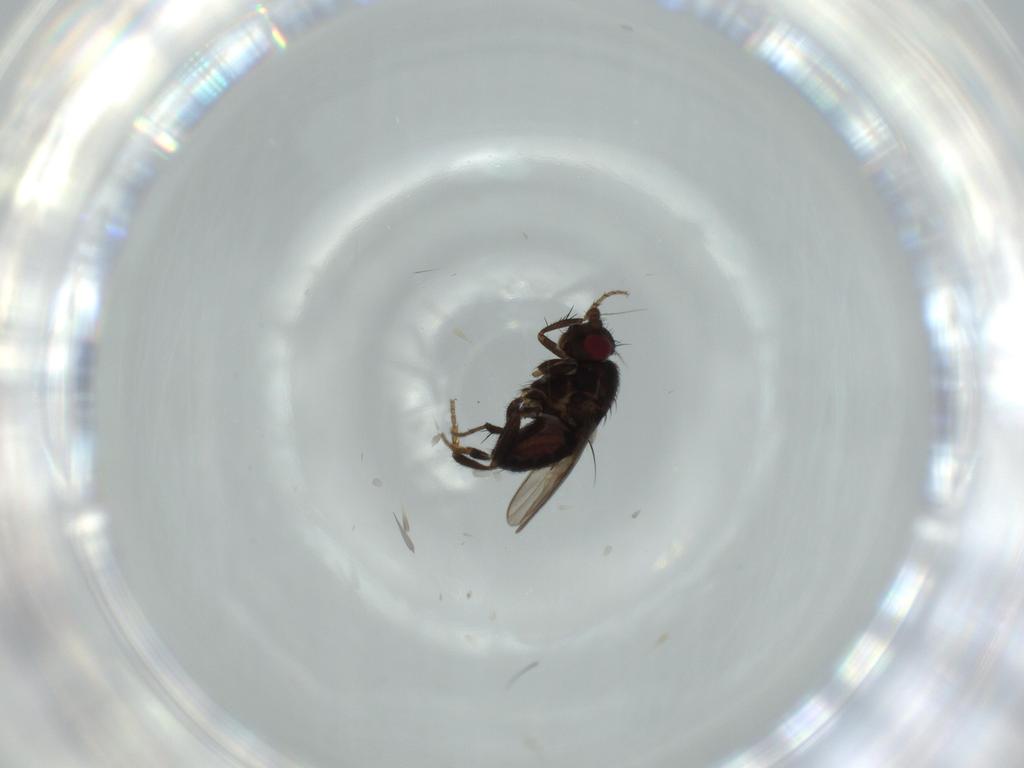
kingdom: Animalia
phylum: Arthropoda
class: Insecta
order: Diptera
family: Sphaeroceridae
